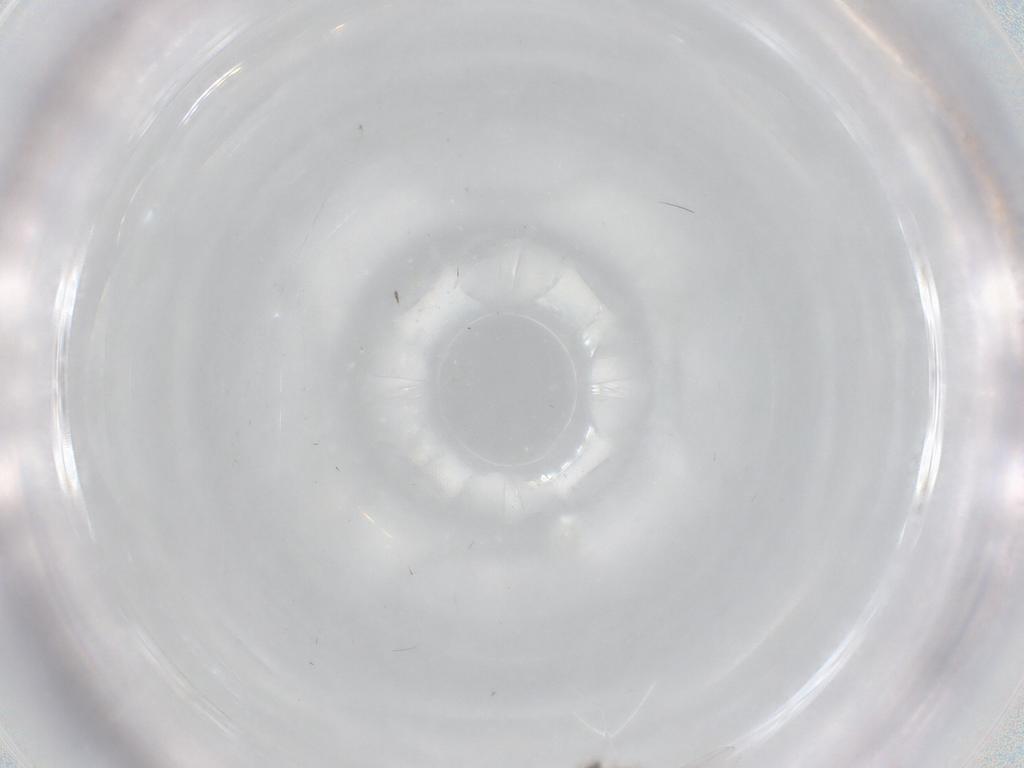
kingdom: Animalia
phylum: Arthropoda
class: Insecta
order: Diptera
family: Cecidomyiidae
